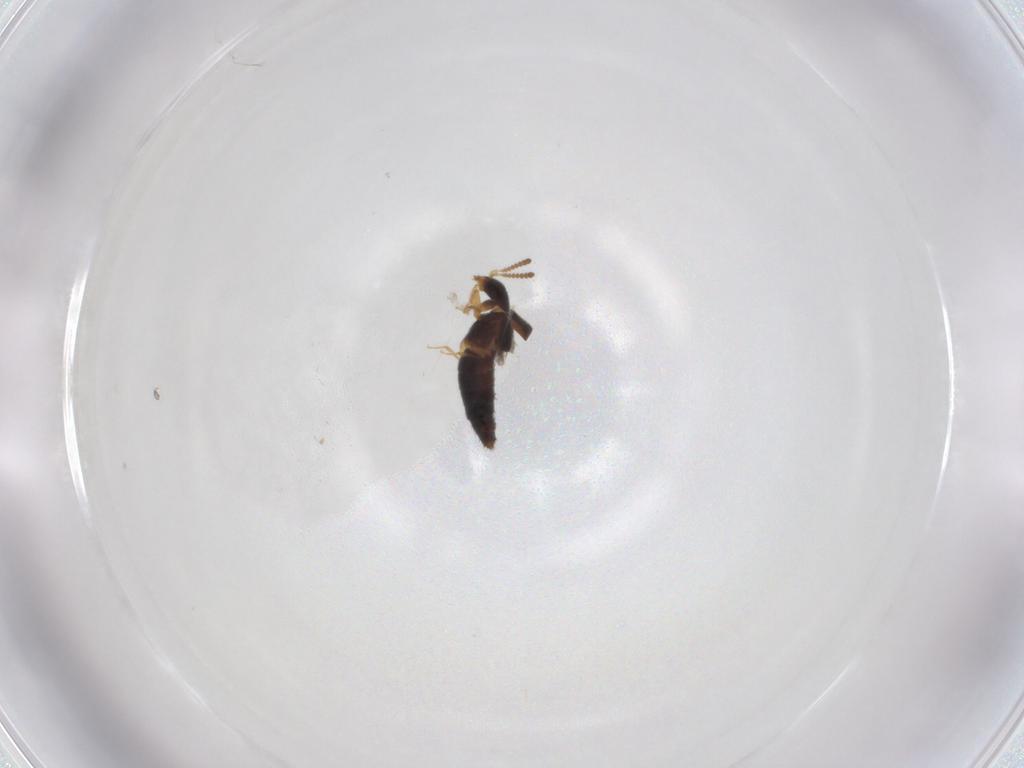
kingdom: Animalia
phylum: Arthropoda
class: Insecta
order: Coleoptera
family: Staphylinidae
